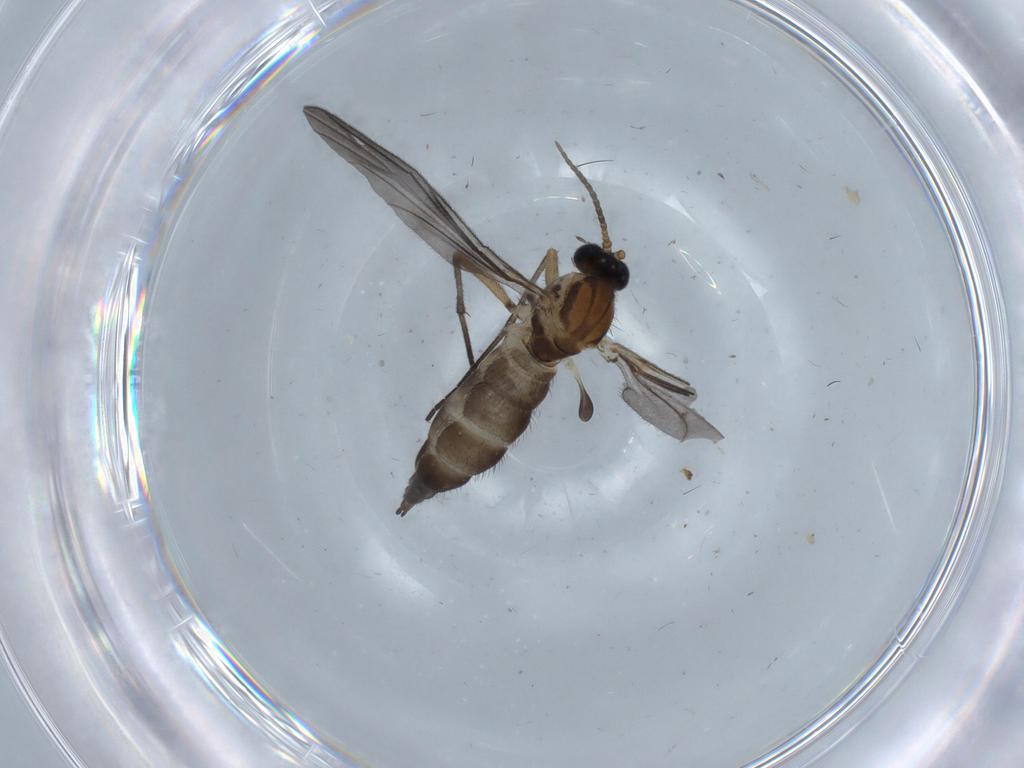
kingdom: Animalia
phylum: Arthropoda
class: Insecta
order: Diptera
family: Sciaridae
